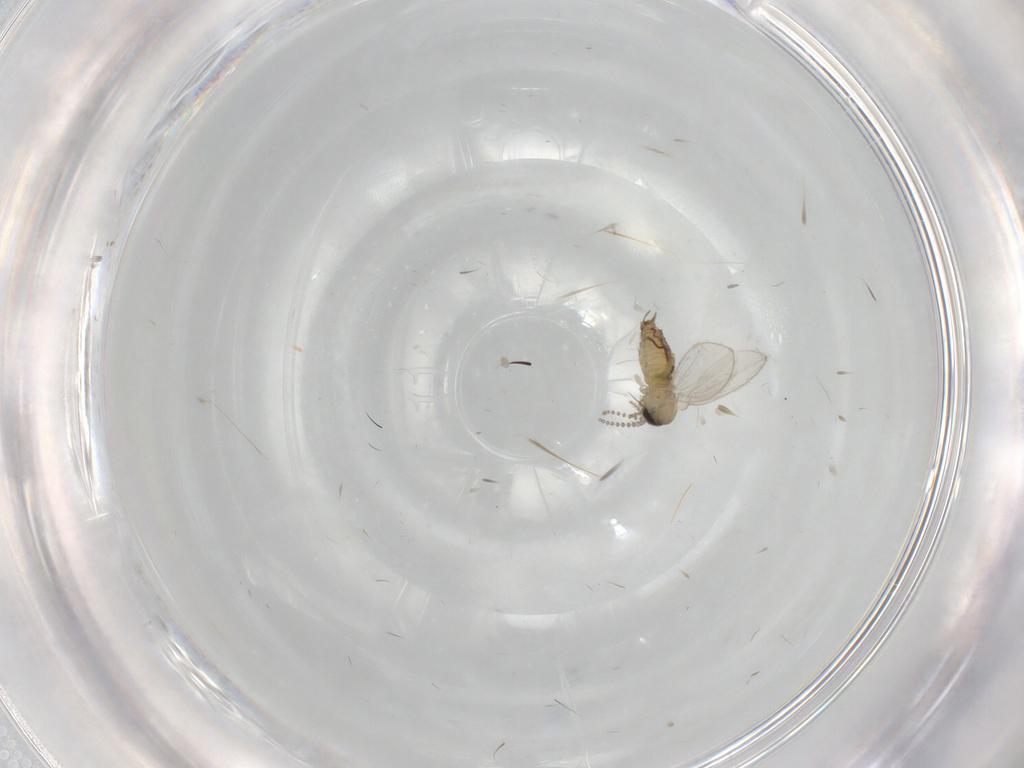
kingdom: Animalia
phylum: Arthropoda
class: Insecta
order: Diptera
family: Psychodidae
